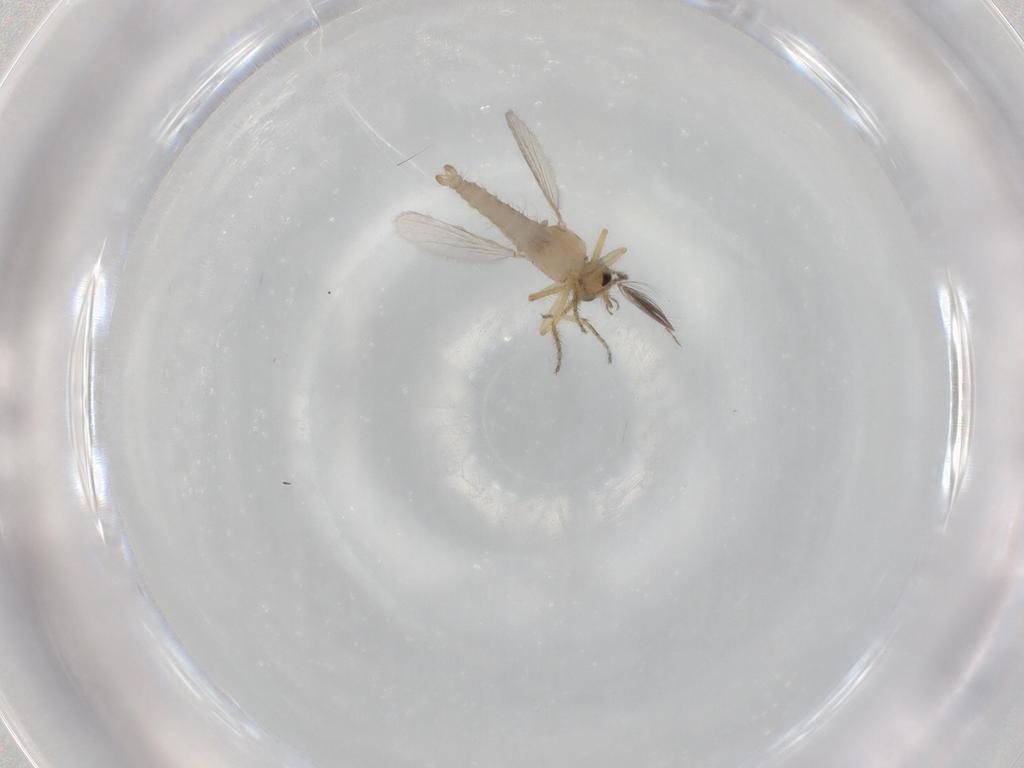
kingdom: Animalia
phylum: Arthropoda
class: Insecta
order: Diptera
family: Ceratopogonidae
